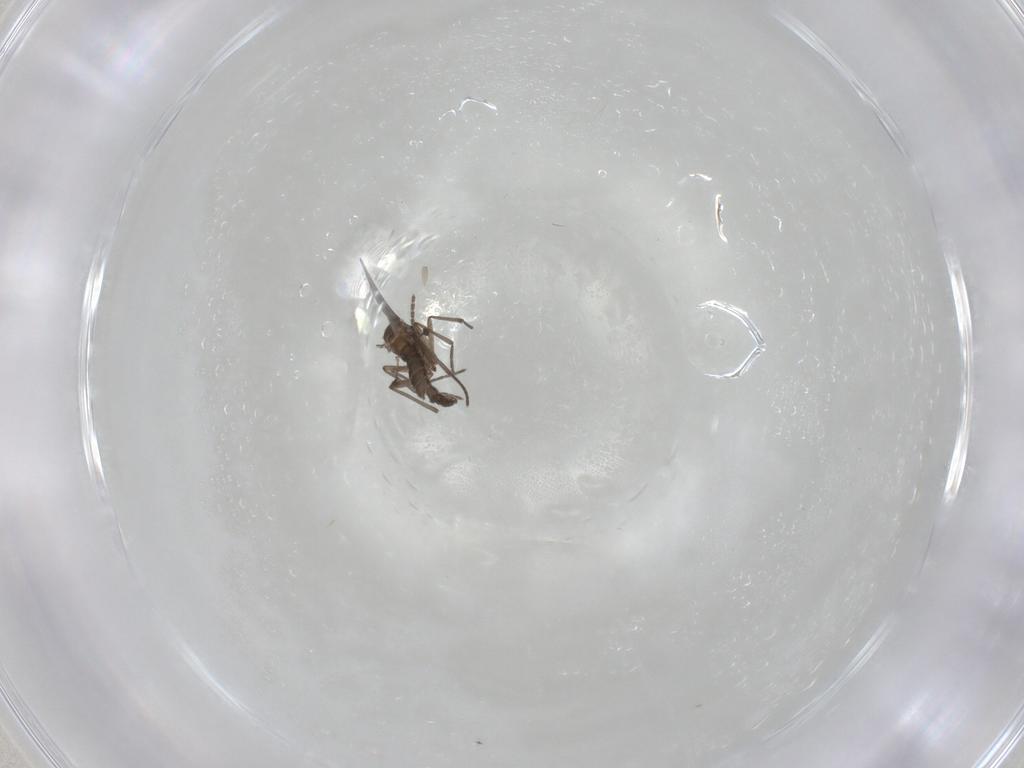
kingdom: Animalia
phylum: Arthropoda
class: Insecta
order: Diptera
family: Sciaridae
